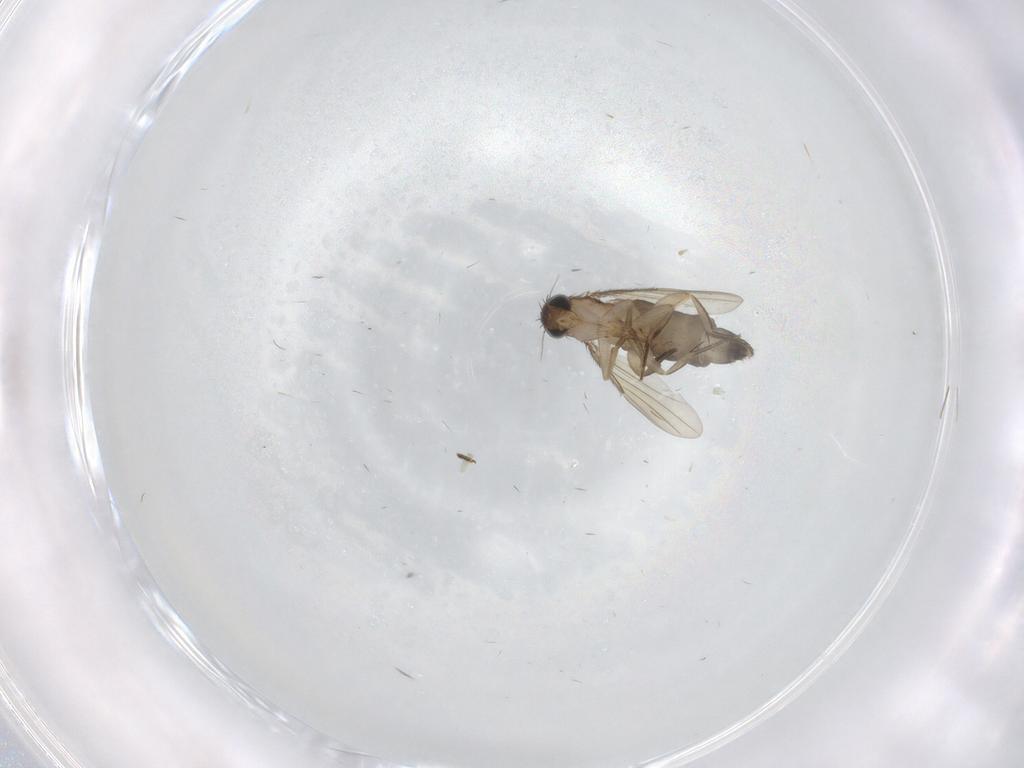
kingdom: Animalia
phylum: Arthropoda
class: Insecta
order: Diptera
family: Phoridae
